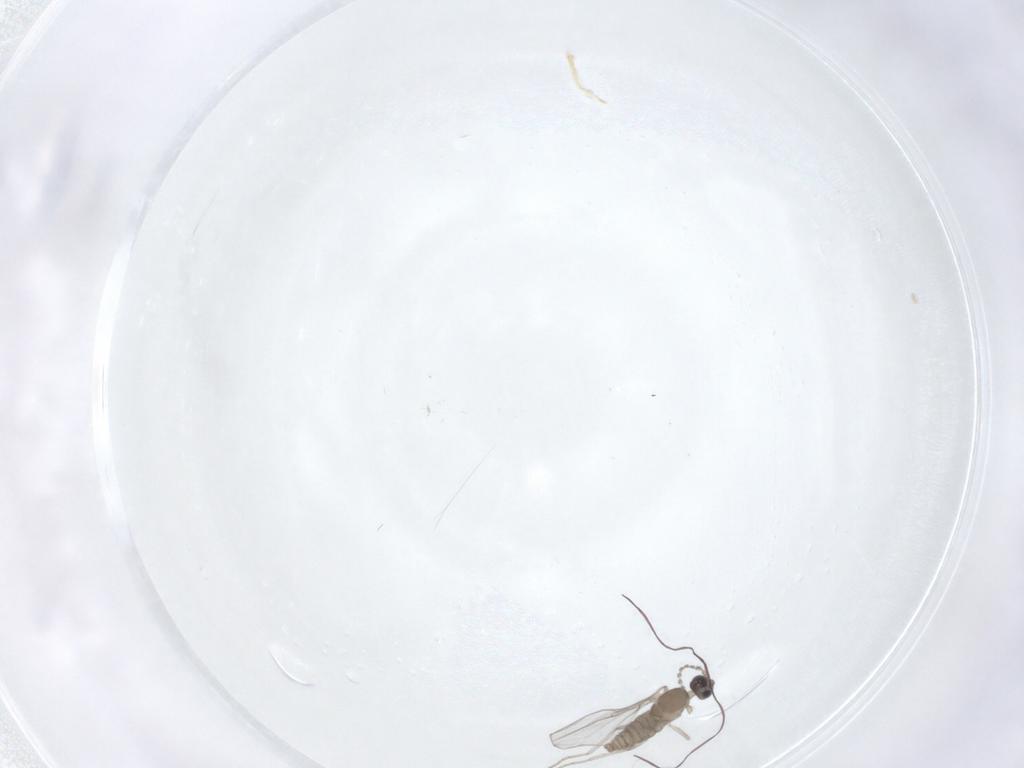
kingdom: Animalia
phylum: Arthropoda
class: Insecta
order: Diptera
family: Cecidomyiidae
